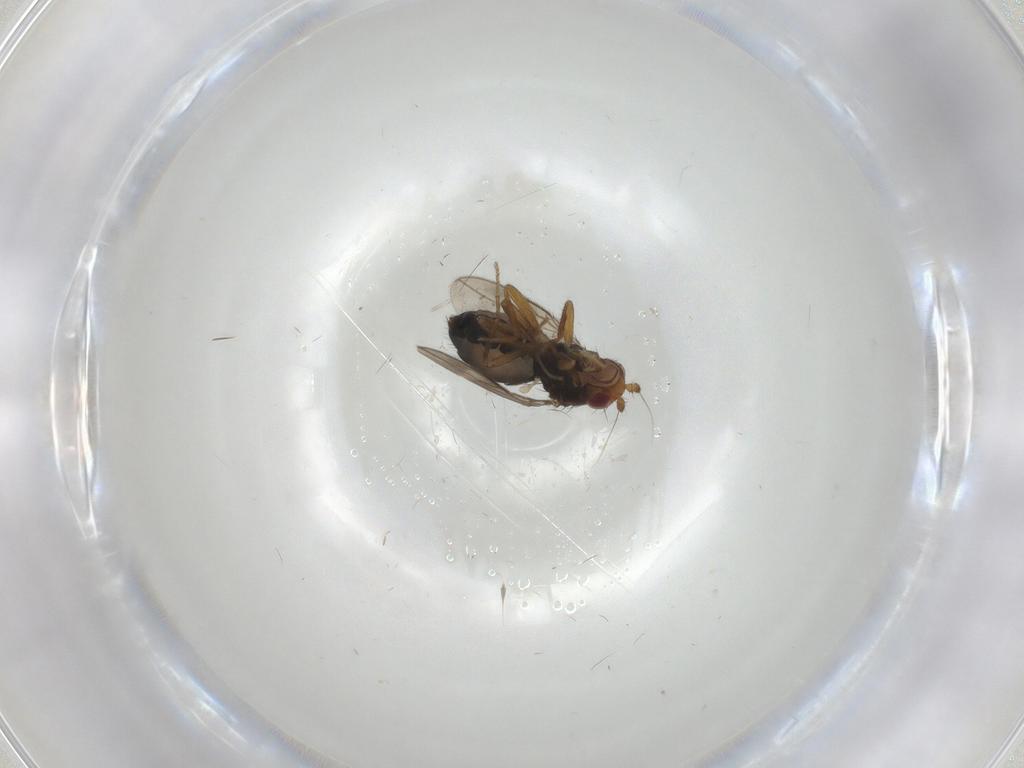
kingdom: Animalia
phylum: Arthropoda
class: Insecta
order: Diptera
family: Sphaeroceridae
